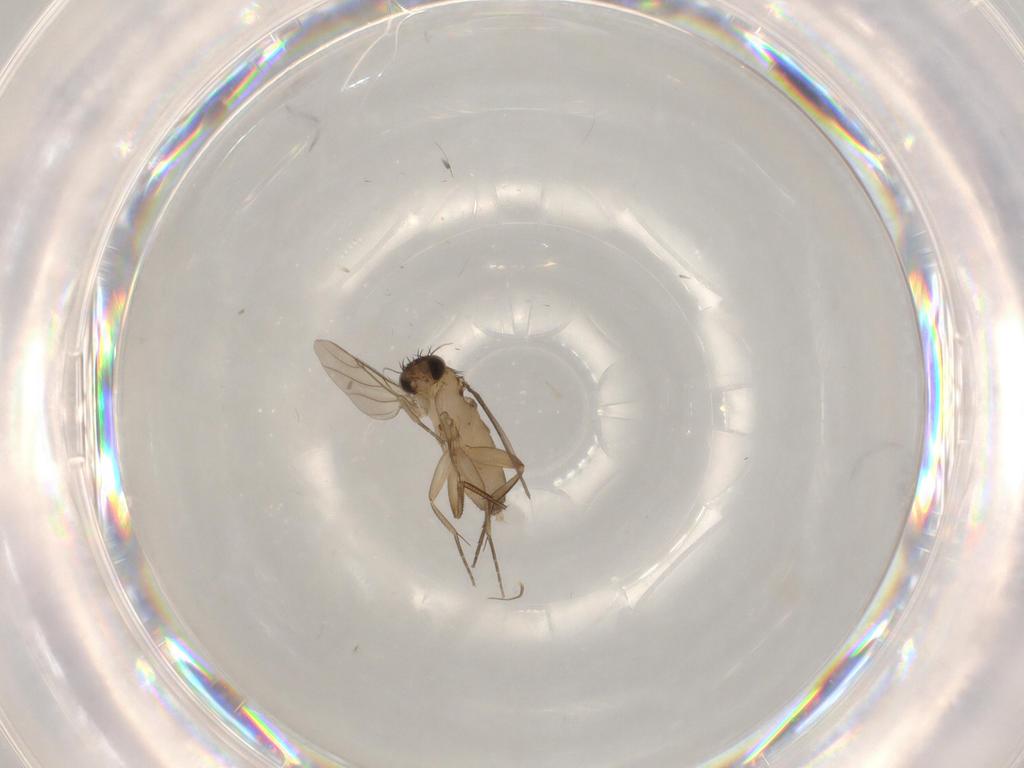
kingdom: Animalia
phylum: Arthropoda
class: Insecta
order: Diptera
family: Phoridae
